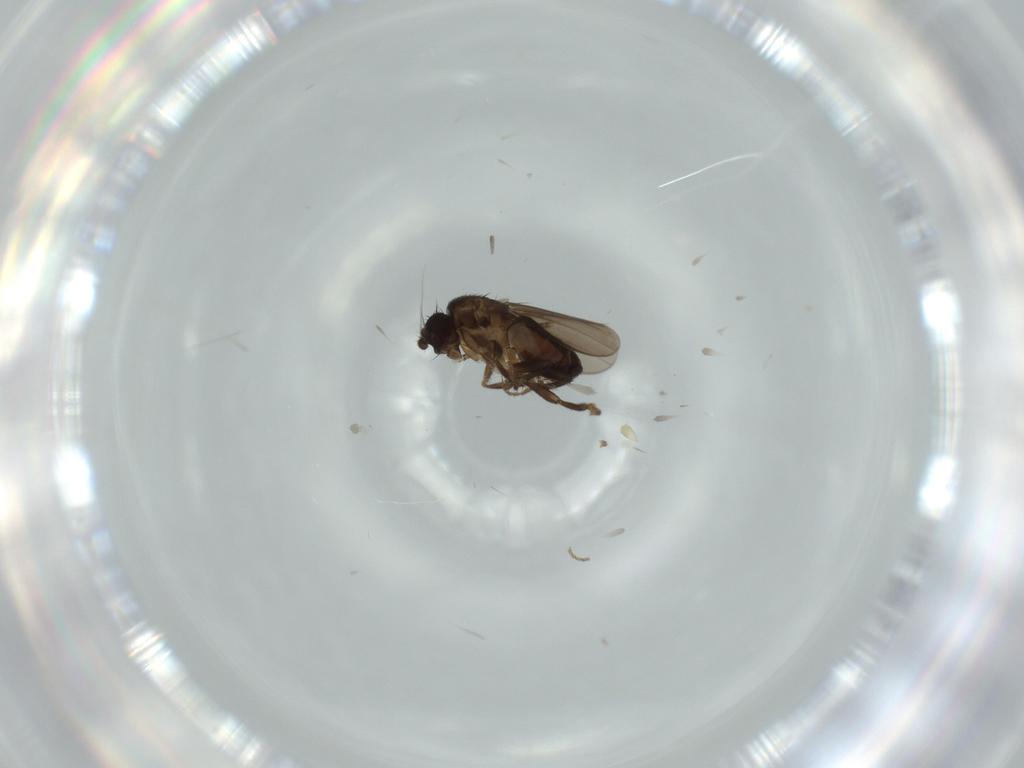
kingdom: Animalia
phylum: Arthropoda
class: Insecta
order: Diptera
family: Sphaeroceridae
